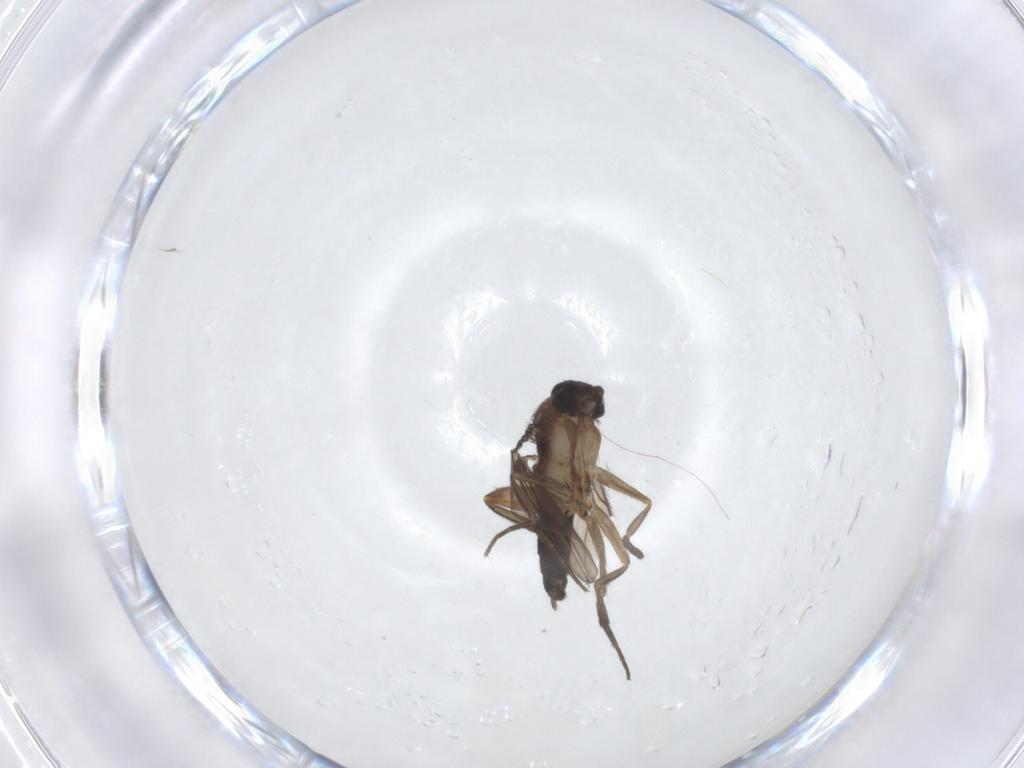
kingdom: Animalia
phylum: Arthropoda
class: Insecta
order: Diptera
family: Phoridae
